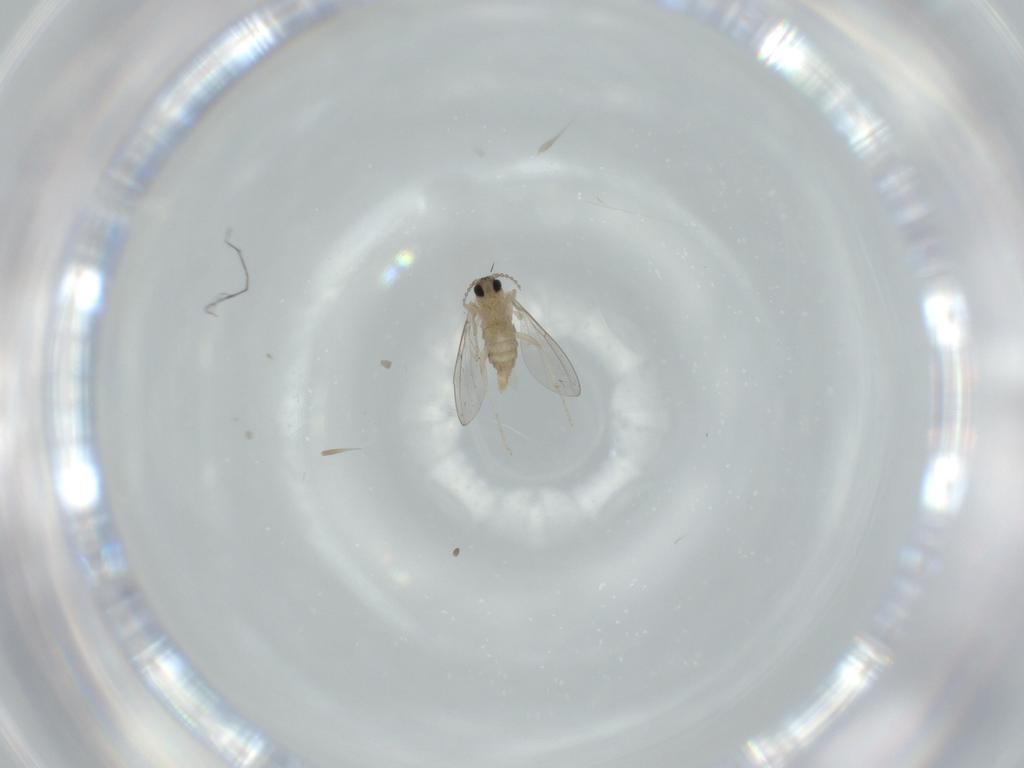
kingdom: Animalia
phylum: Arthropoda
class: Insecta
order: Diptera
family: Cecidomyiidae
